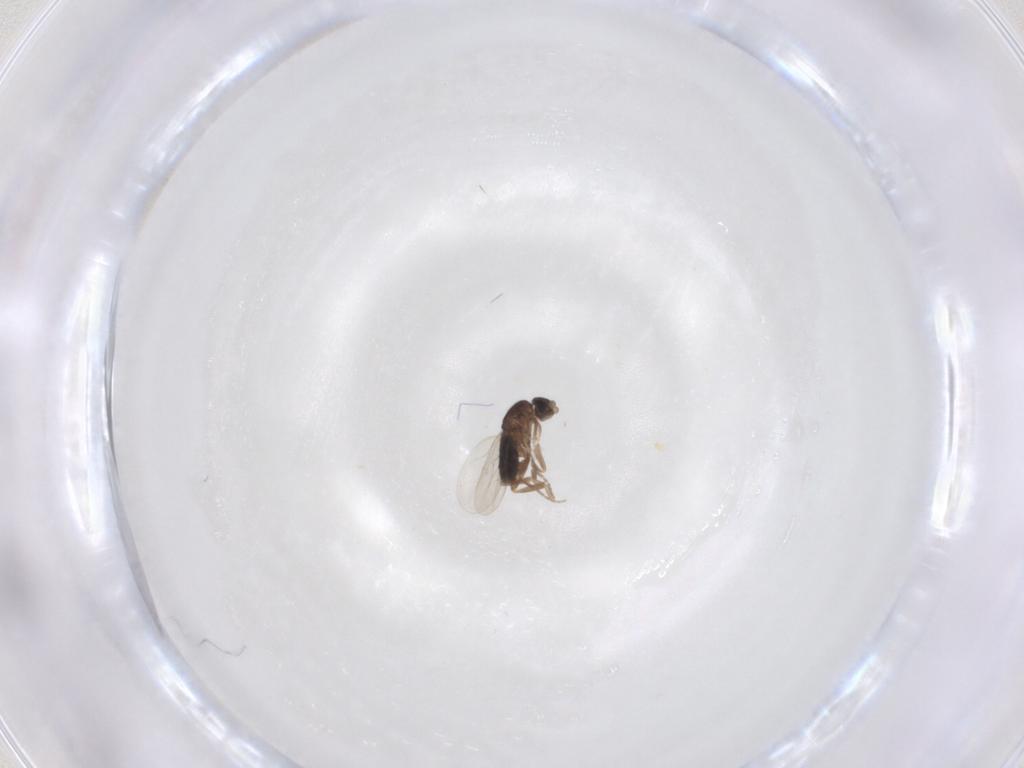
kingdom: Animalia
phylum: Arthropoda
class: Insecta
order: Diptera
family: Phoridae
